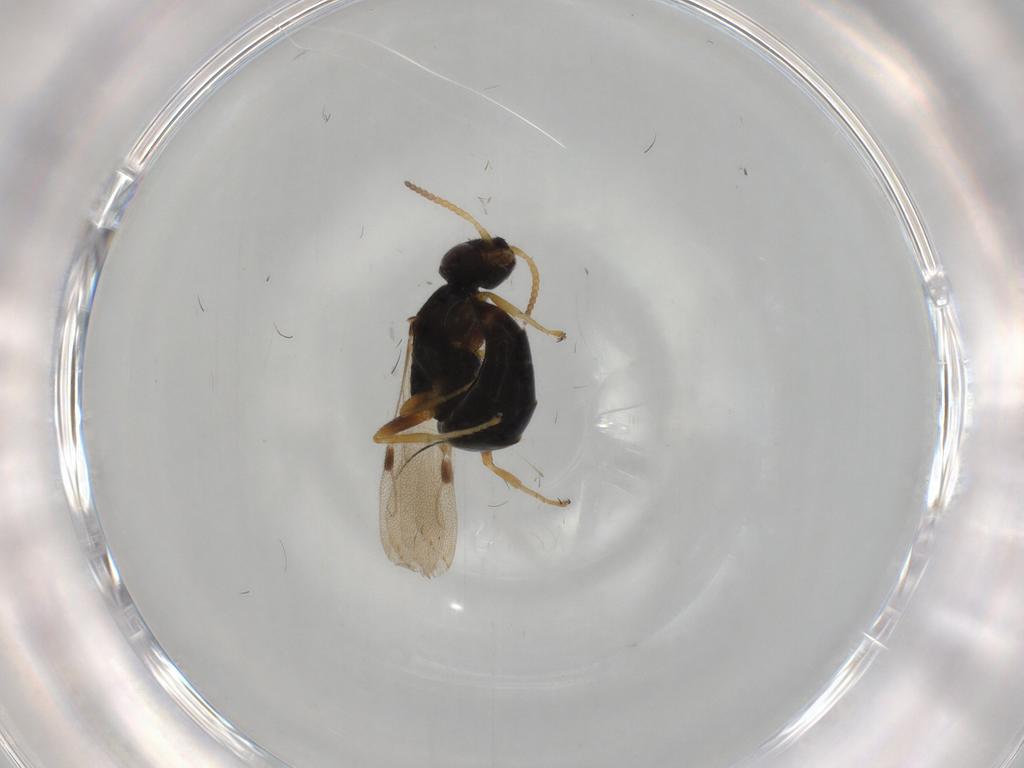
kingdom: Animalia
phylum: Arthropoda
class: Insecta
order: Hymenoptera
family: Bethylidae
